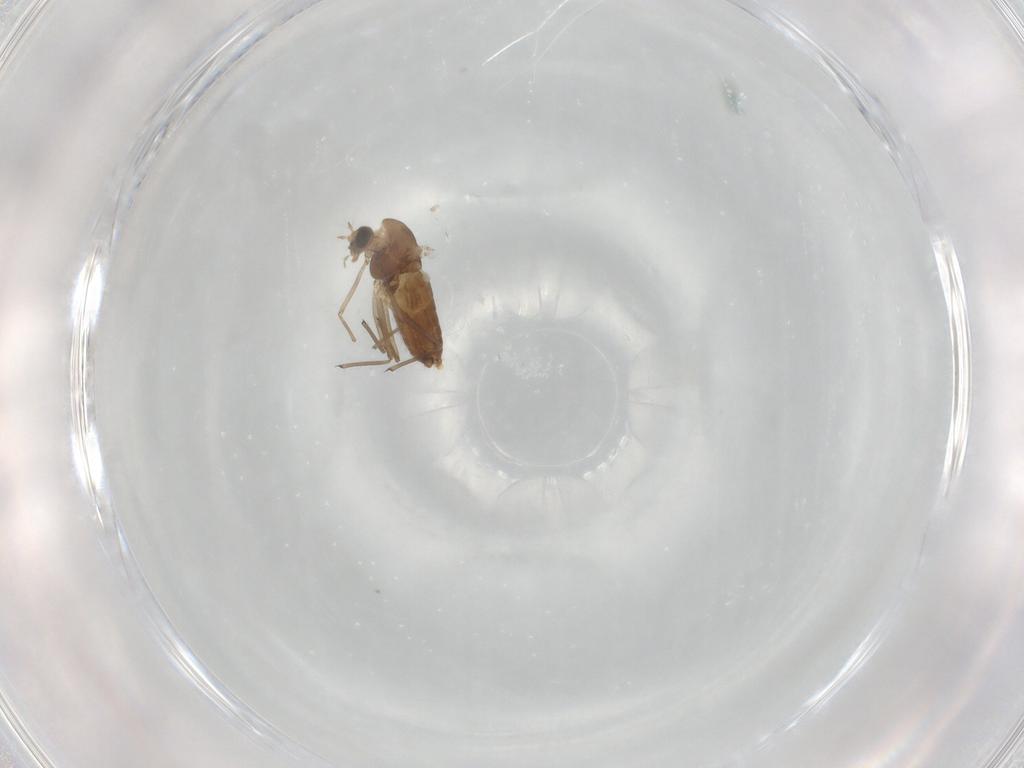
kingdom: Animalia
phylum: Arthropoda
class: Insecta
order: Diptera
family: Chironomidae
